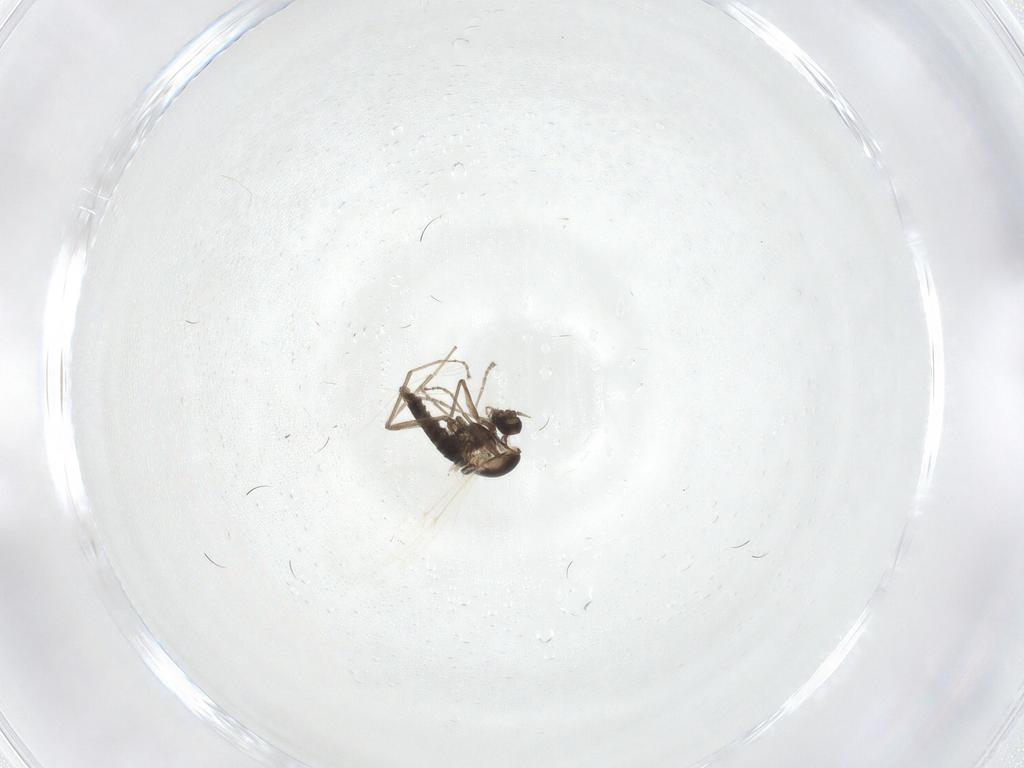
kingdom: Animalia
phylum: Arthropoda
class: Insecta
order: Diptera
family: Cecidomyiidae
